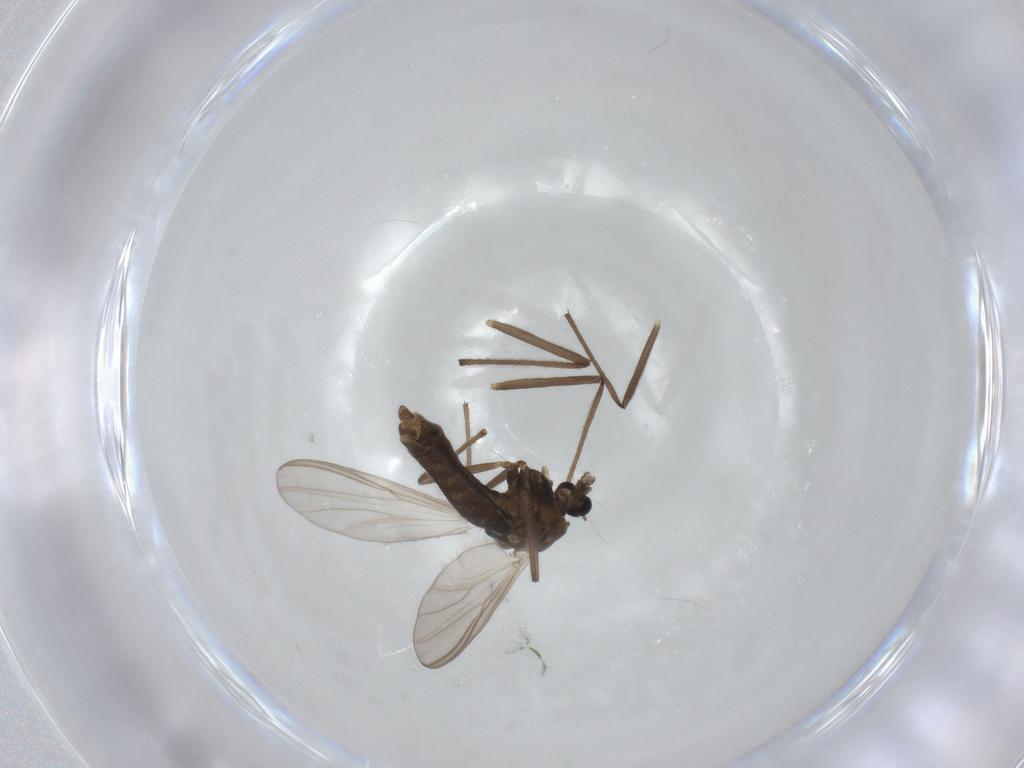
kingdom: Animalia
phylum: Arthropoda
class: Insecta
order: Diptera
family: Chironomidae
